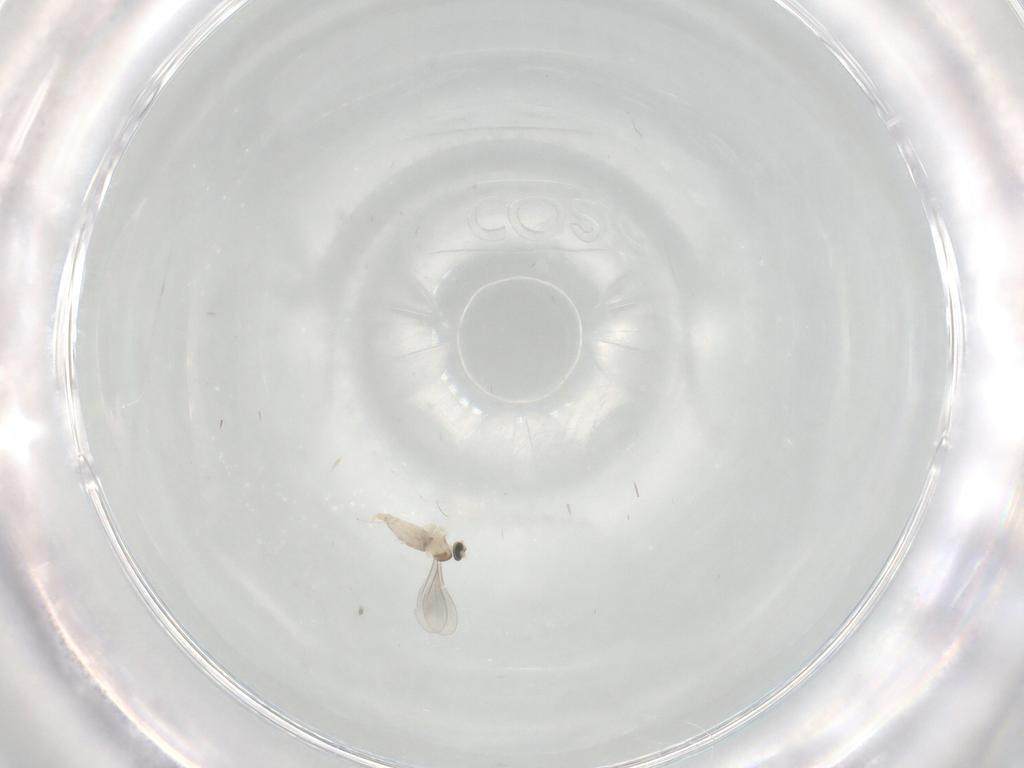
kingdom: Animalia
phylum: Arthropoda
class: Insecta
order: Diptera
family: Cecidomyiidae
